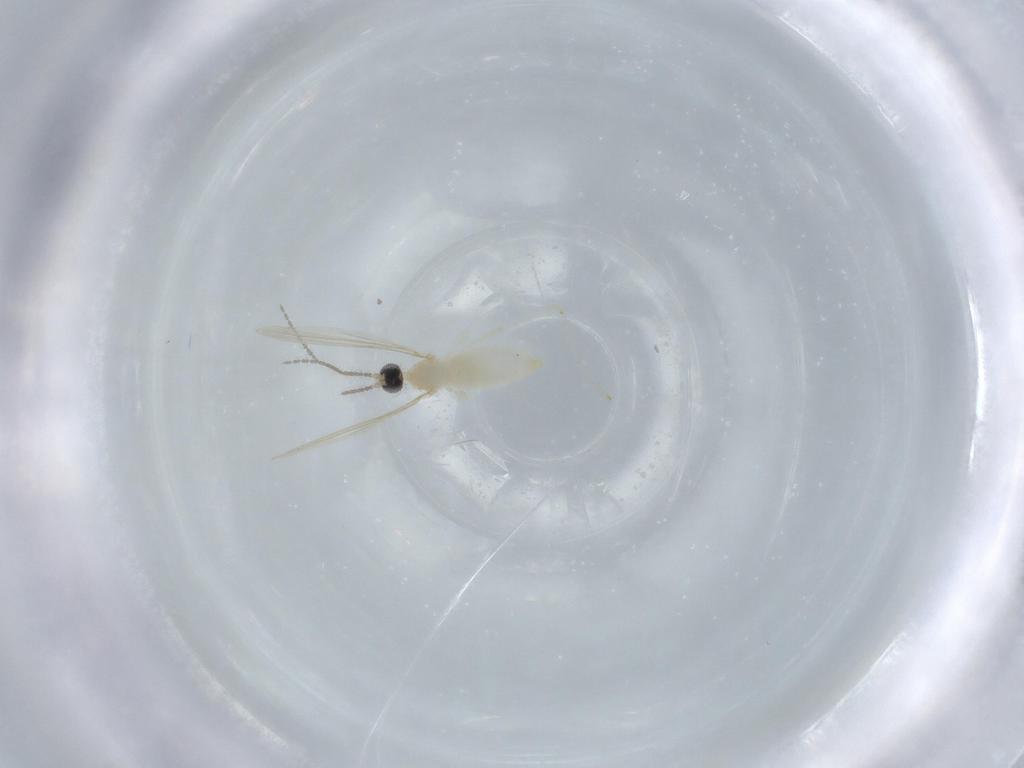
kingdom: Animalia
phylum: Arthropoda
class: Insecta
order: Diptera
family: Cecidomyiidae
